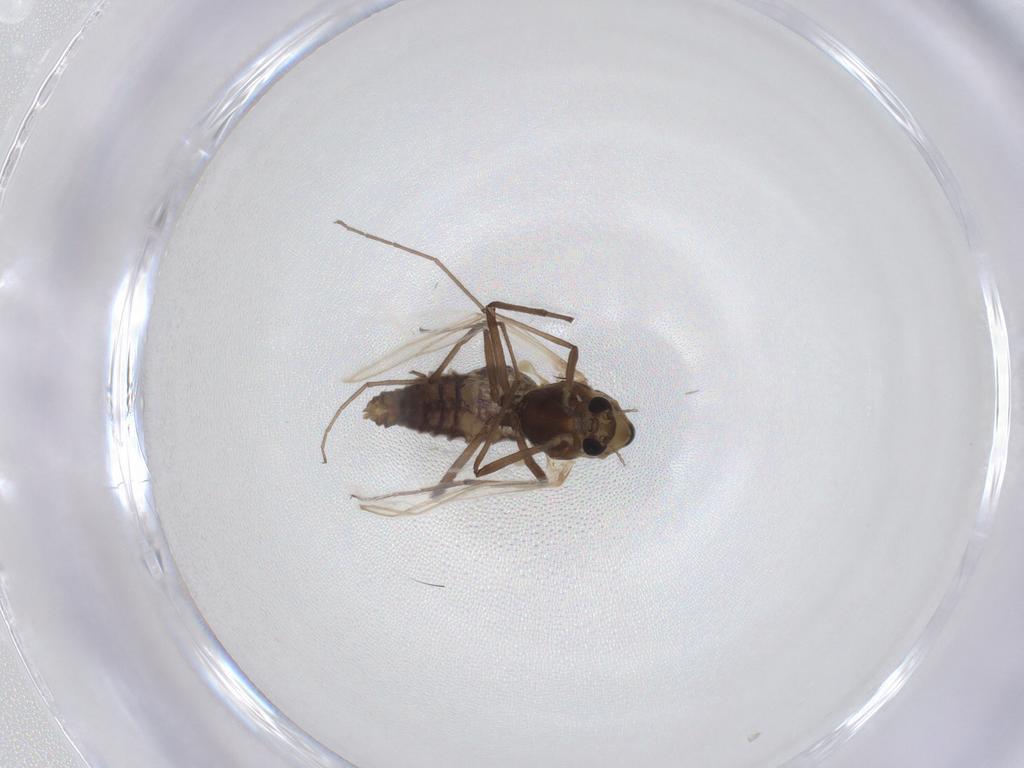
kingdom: Animalia
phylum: Arthropoda
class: Insecta
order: Diptera
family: Chironomidae
